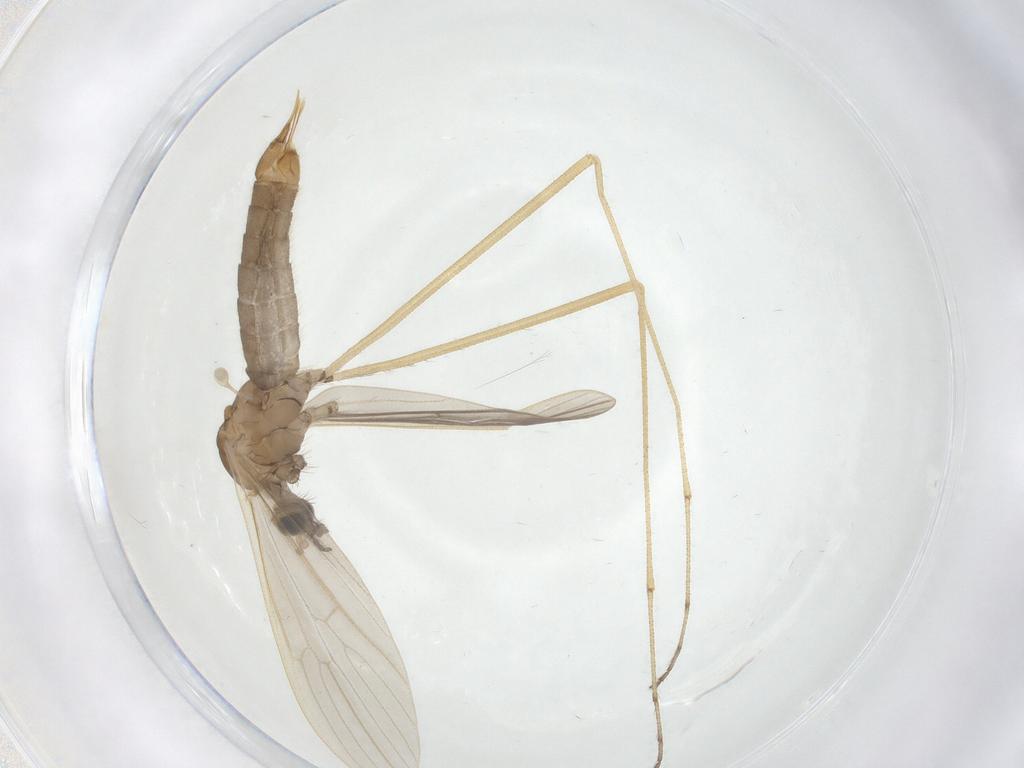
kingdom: Animalia
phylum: Arthropoda
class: Insecta
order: Diptera
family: Limoniidae
